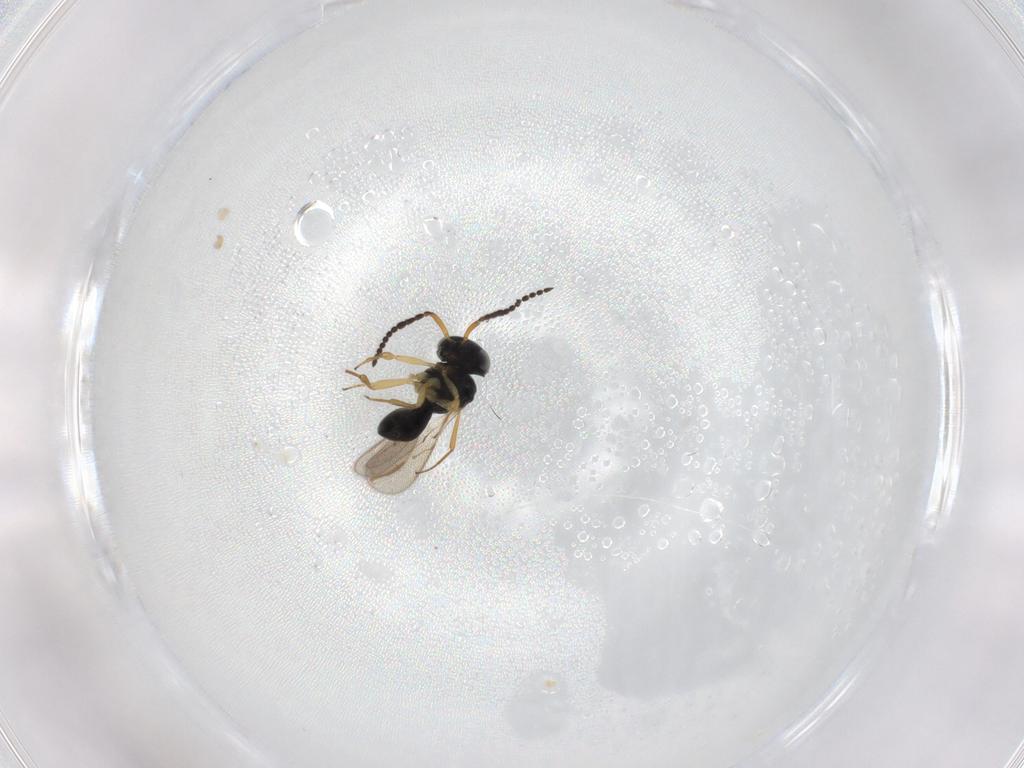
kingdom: Animalia
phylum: Arthropoda
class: Insecta
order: Hymenoptera
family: Scelionidae
